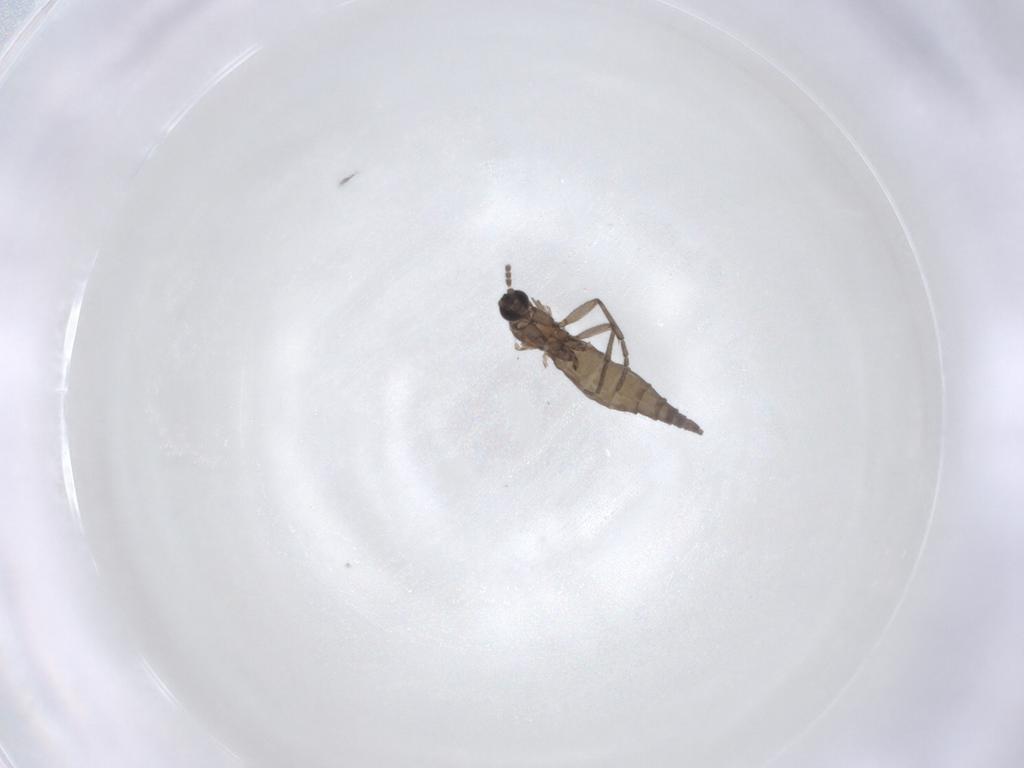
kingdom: Animalia
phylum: Arthropoda
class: Insecta
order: Diptera
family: Sciaridae
